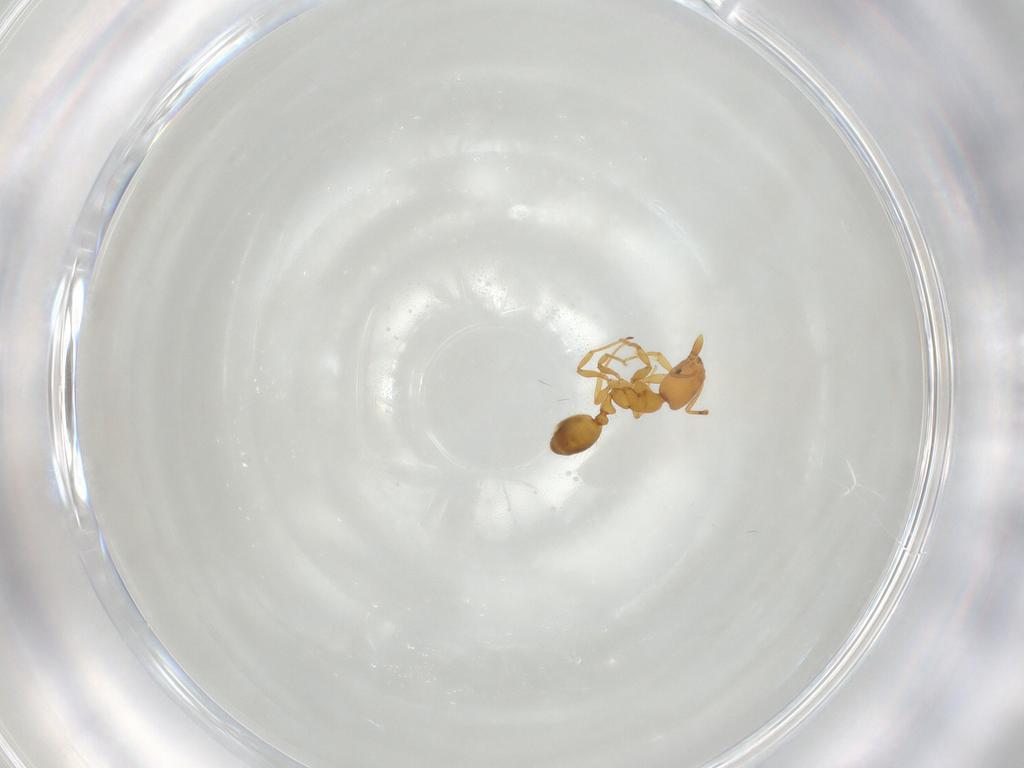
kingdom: Animalia
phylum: Arthropoda
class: Insecta
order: Hymenoptera
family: Formicidae
